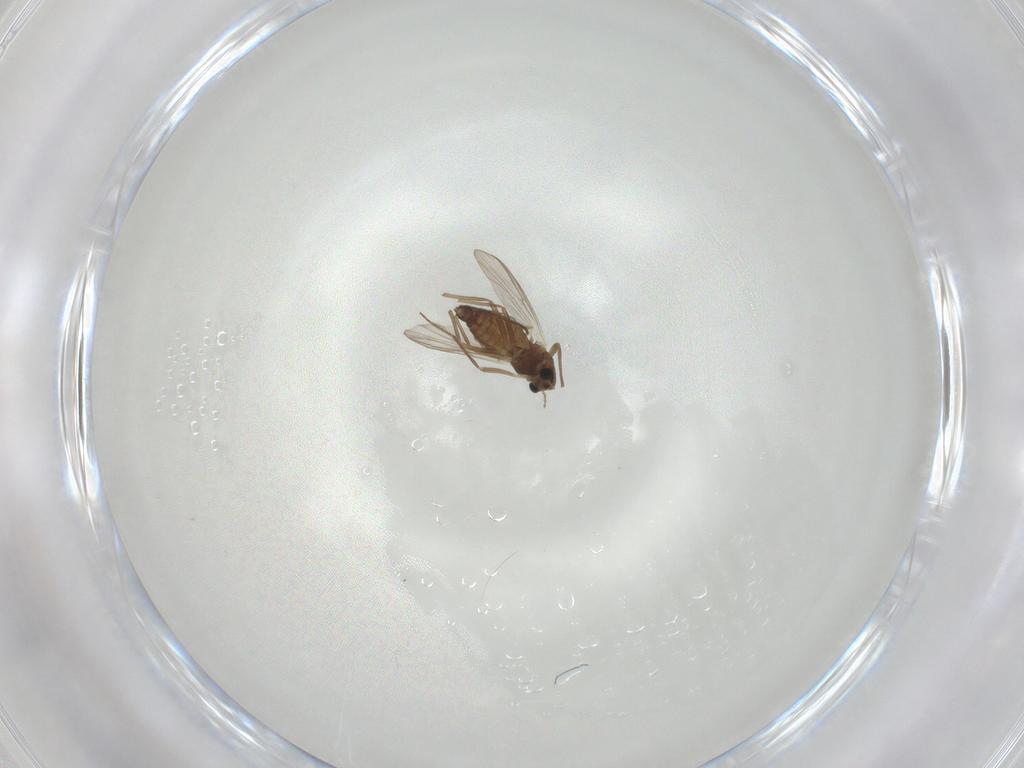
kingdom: Animalia
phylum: Arthropoda
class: Insecta
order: Diptera
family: Chironomidae
